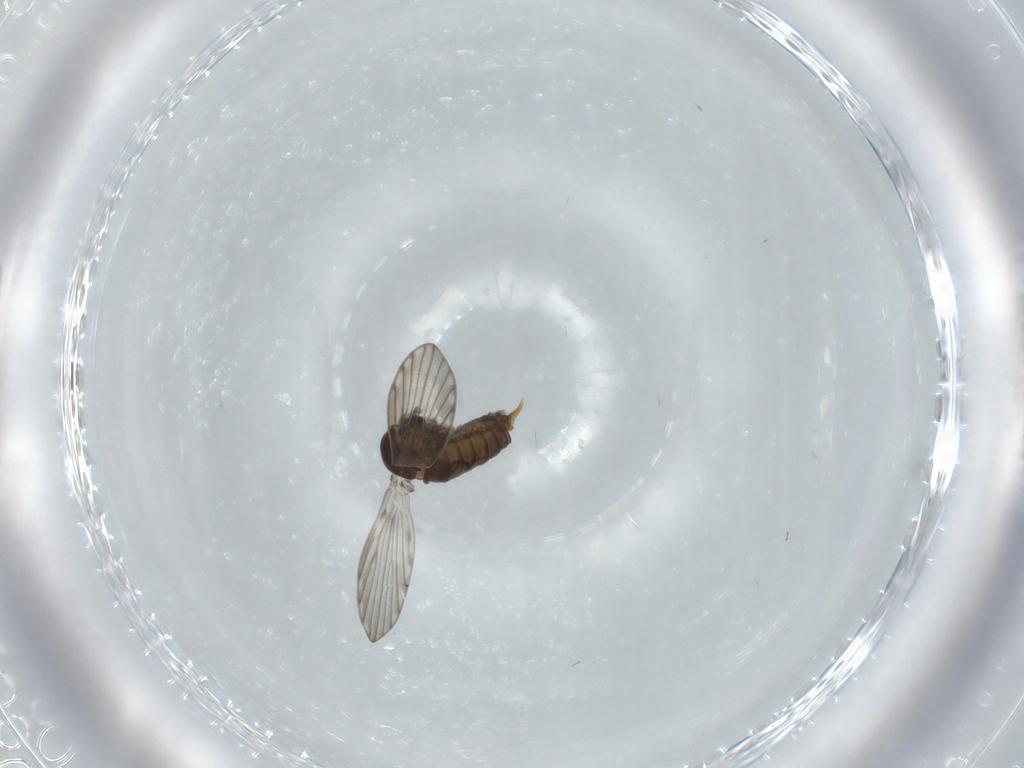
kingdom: Animalia
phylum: Arthropoda
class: Insecta
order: Diptera
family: Psychodidae
